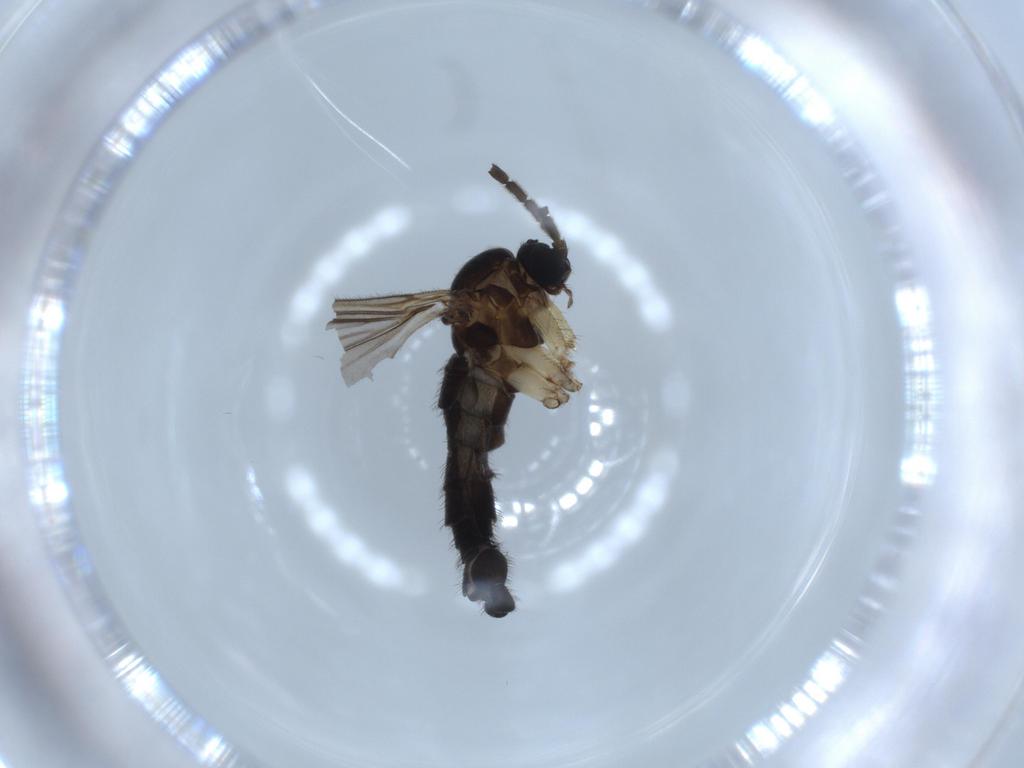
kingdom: Animalia
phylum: Arthropoda
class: Insecta
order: Diptera
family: Sciaridae
